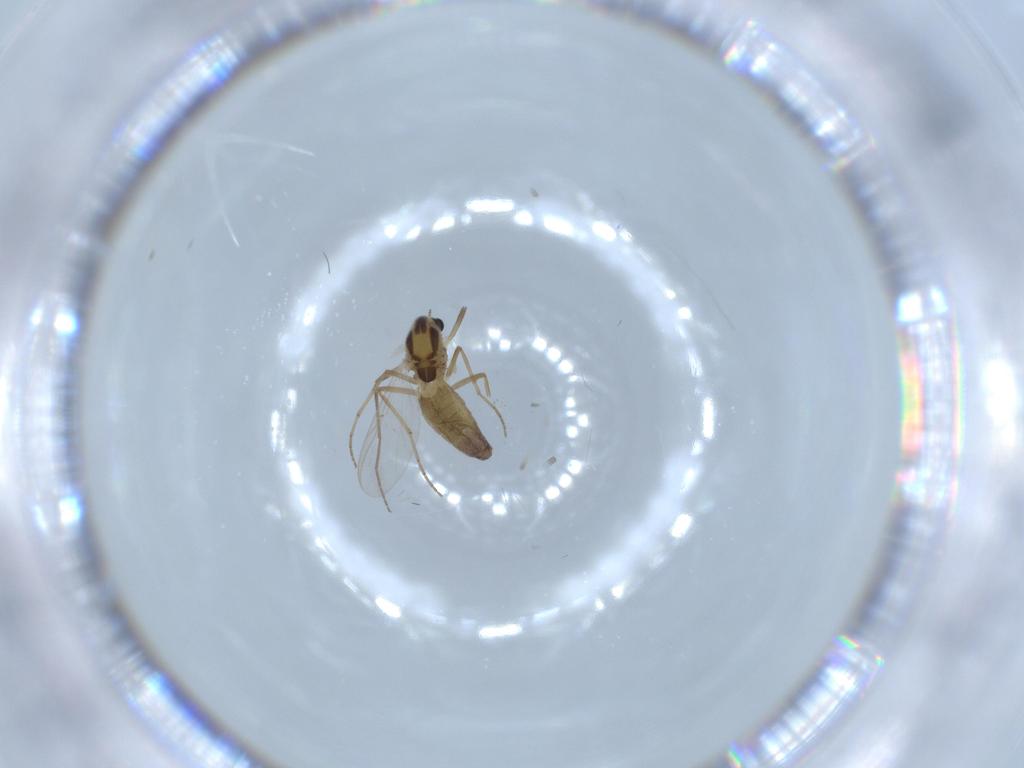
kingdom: Animalia
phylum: Arthropoda
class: Insecta
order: Diptera
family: Chironomidae
